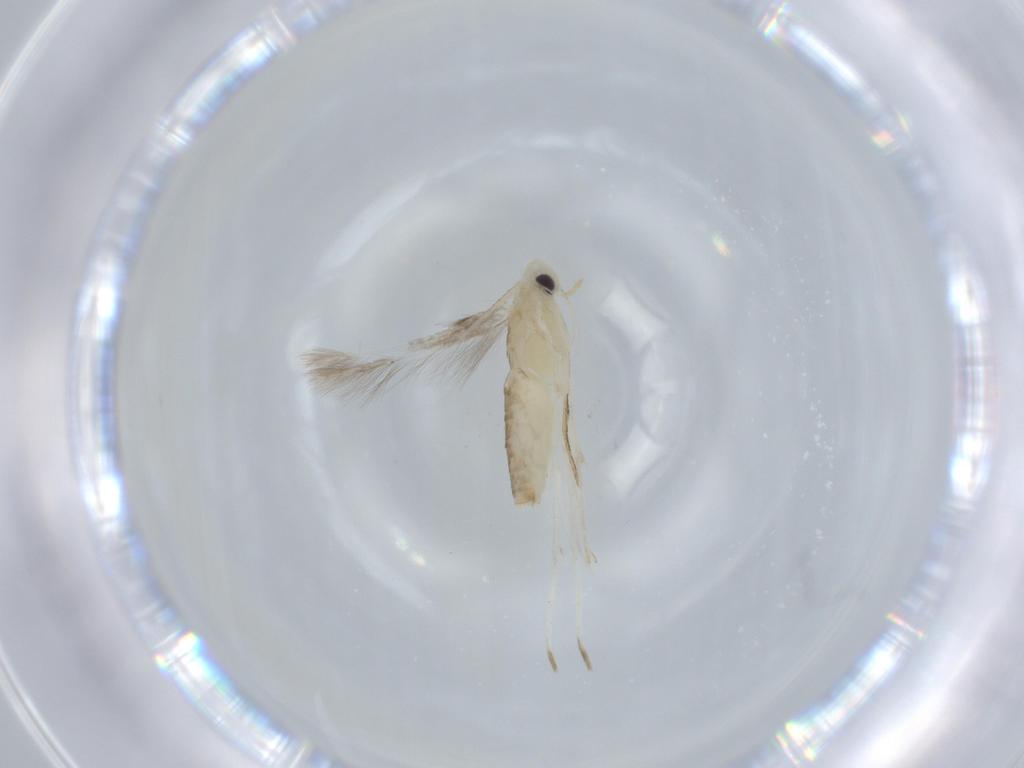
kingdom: Animalia
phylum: Arthropoda
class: Insecta
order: Lepidoptera
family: Nepticulidae
